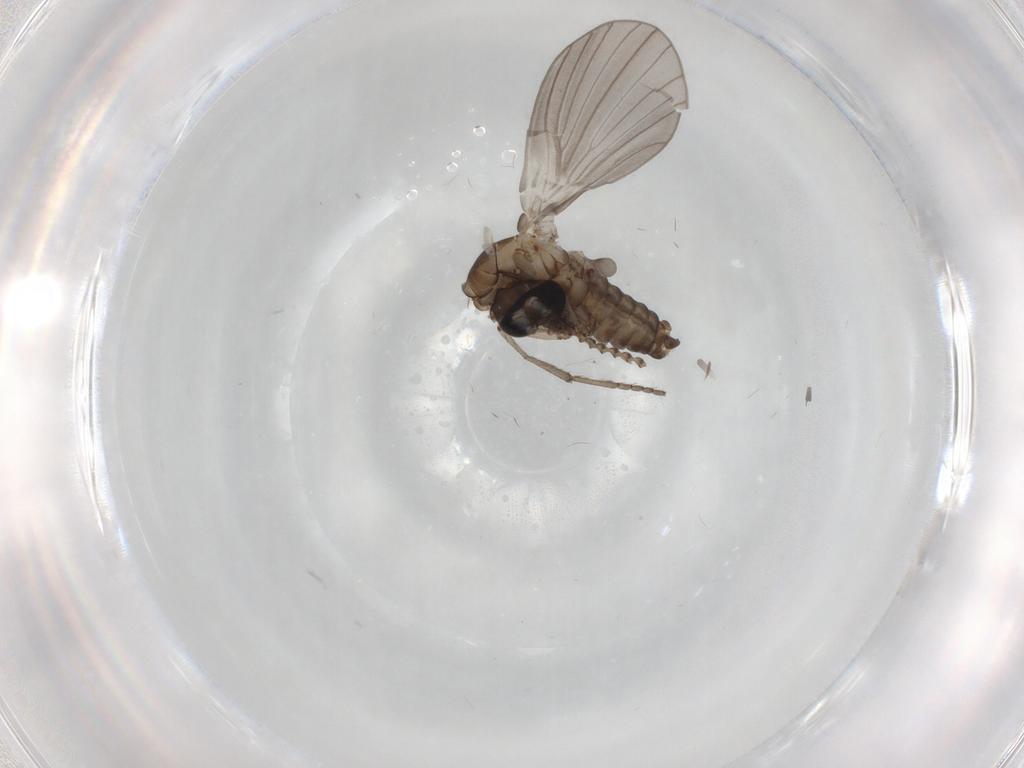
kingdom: Animalia
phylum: Arthropoda
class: Insecta
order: Diptera
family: Psychodidae
